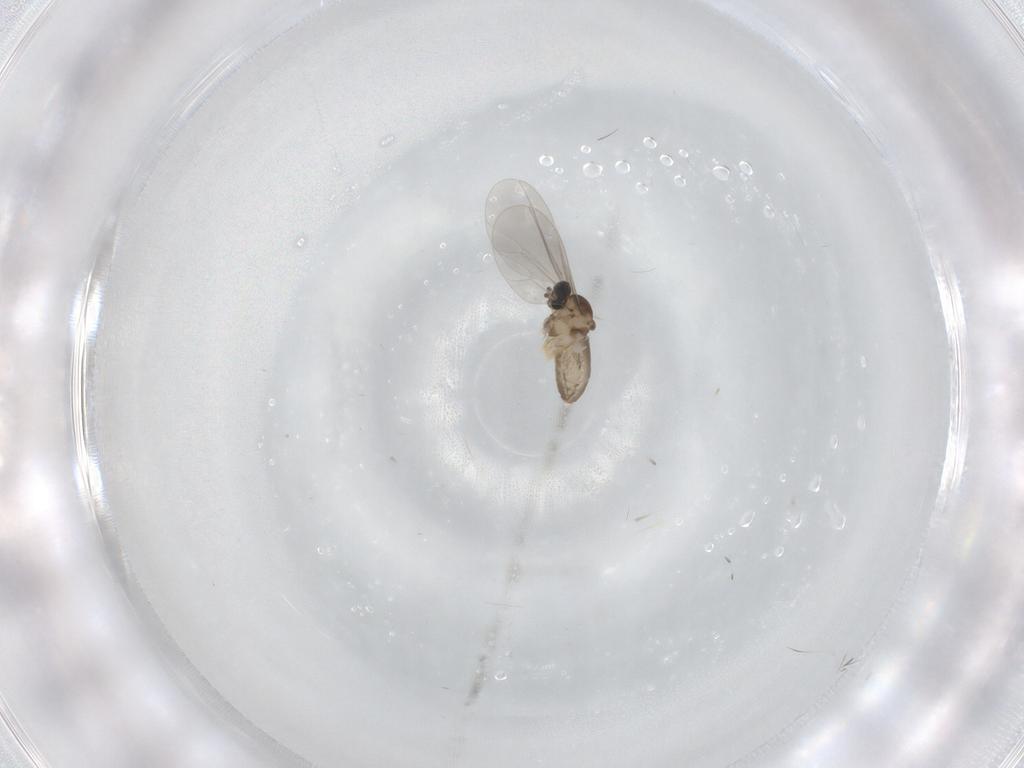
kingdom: Animalia
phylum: Arthropoda
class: Insecta
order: Diptera
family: Cecidomyiidae
